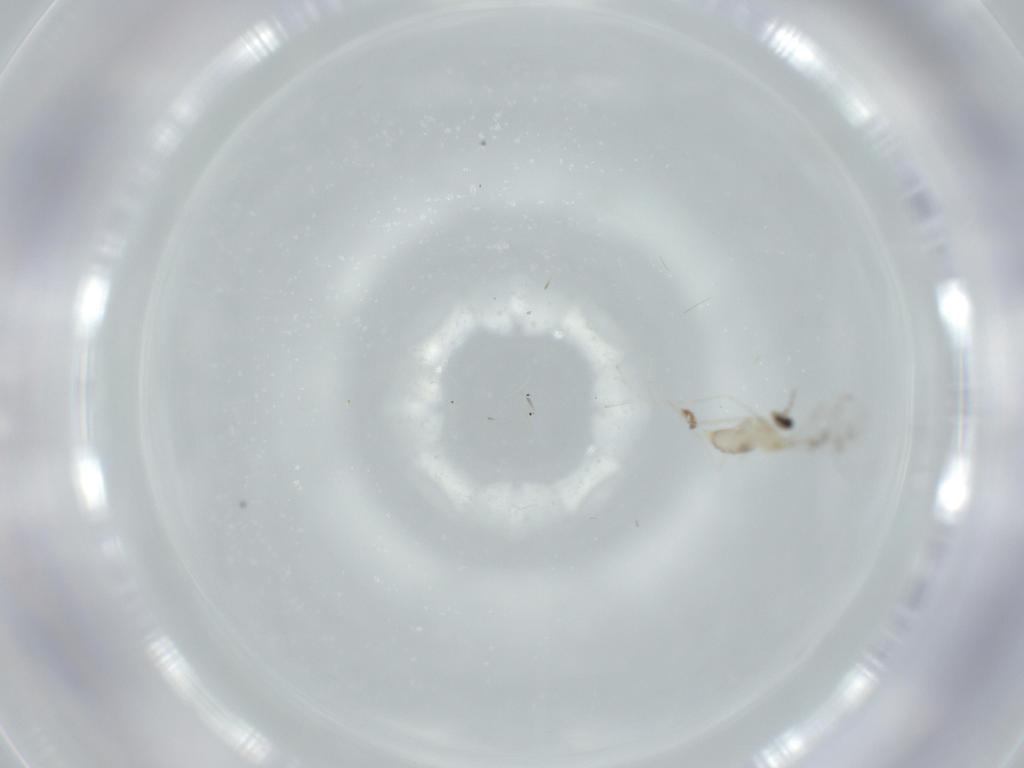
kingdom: Animalia
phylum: Arthropoda
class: Insecta
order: Diptera
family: Cecidomyiidae
